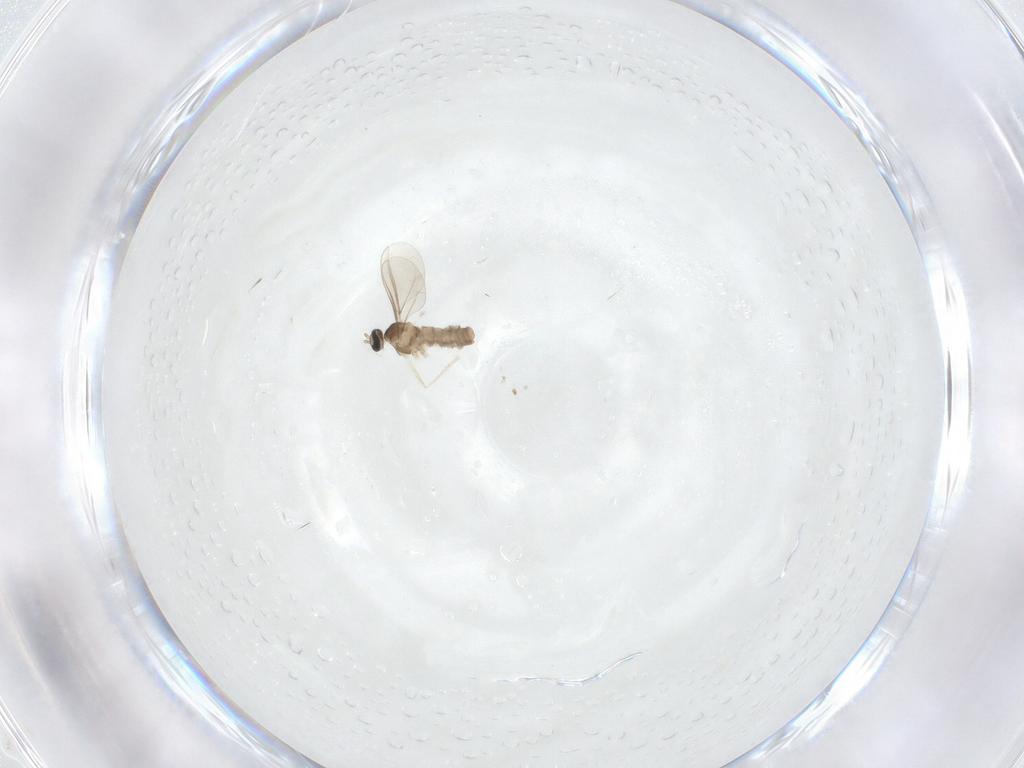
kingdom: Animalia
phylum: Arthropoda
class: Insecta
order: Diptera
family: Cecidomyiidae
